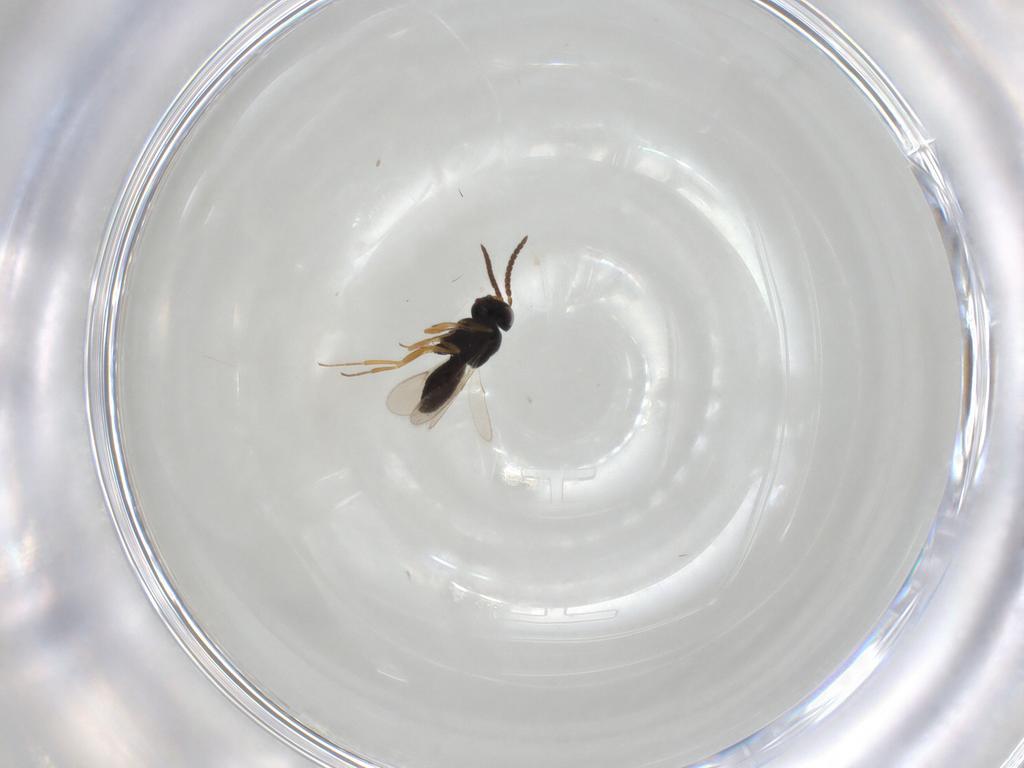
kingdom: Animalia
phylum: Arthropoda
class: Insecta
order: Hymenoptera
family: Scelionidae
